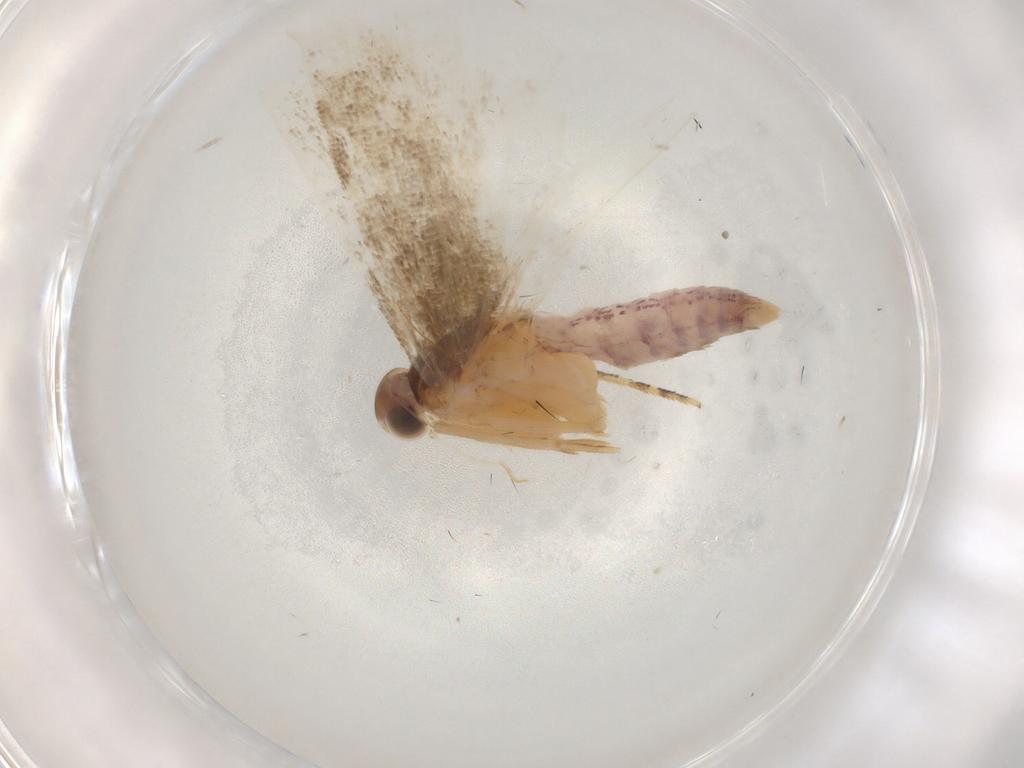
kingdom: Animalia
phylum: Arthropoda
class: Insecta
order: Lepidoptera
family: Gelechiidae
